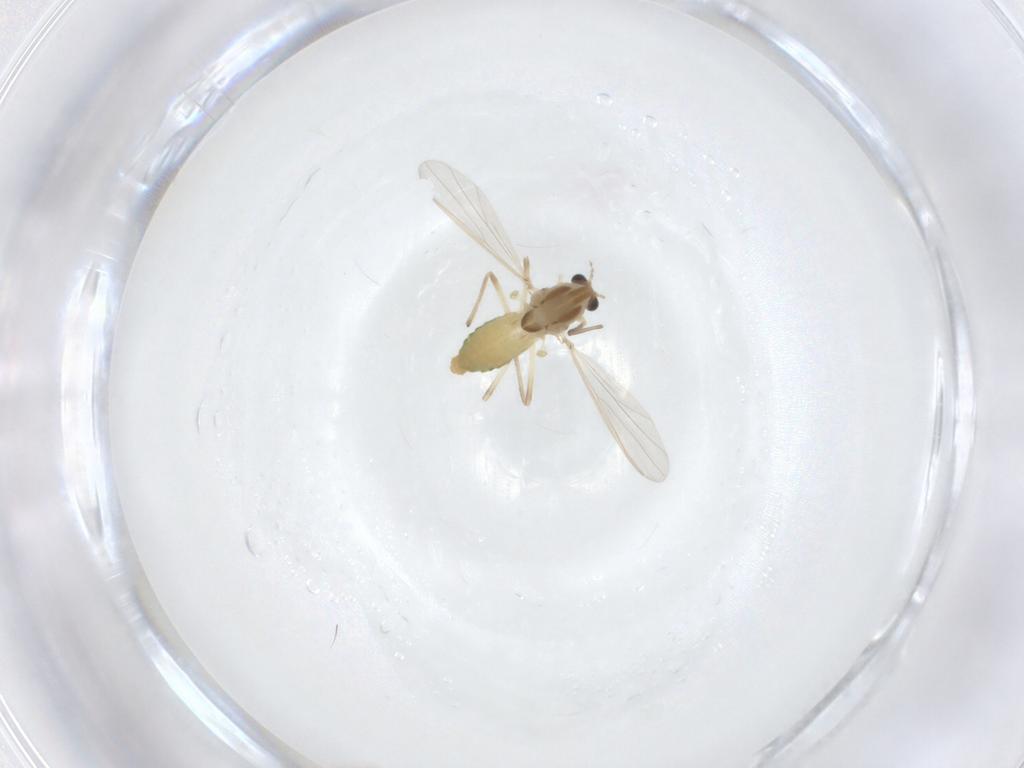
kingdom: Animalia
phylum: Arthropoda
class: Insecta
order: Diptera
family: Chironomidae
